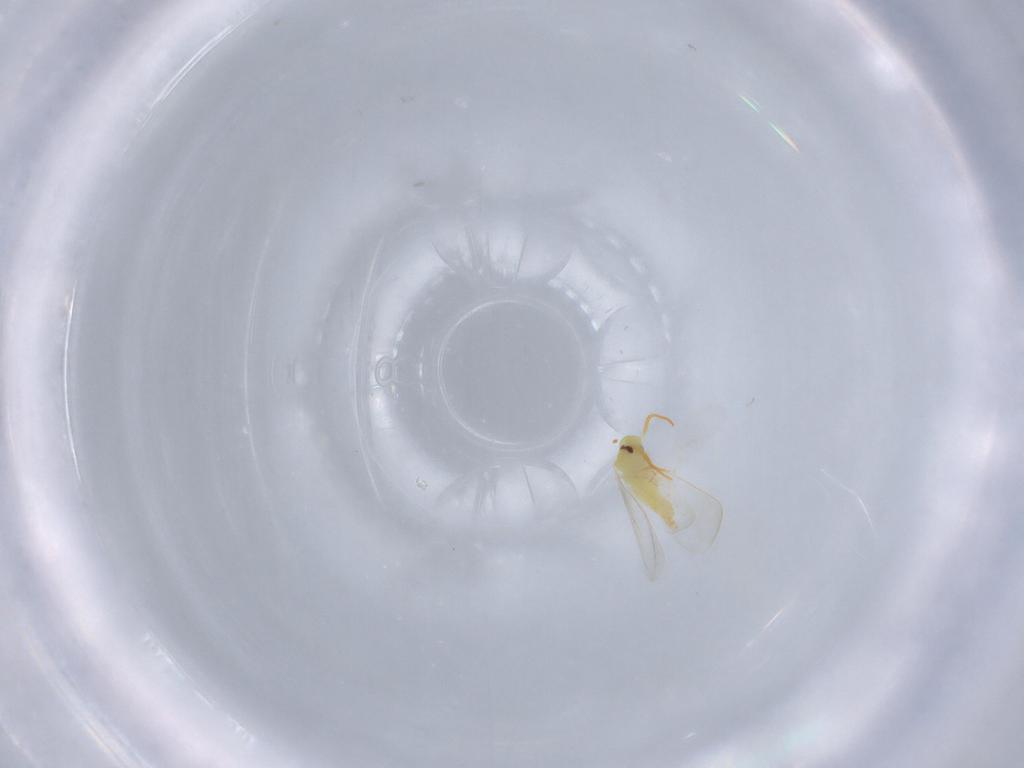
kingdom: Animalia
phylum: Arthropoda
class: Insecta
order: Hemiptera
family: Aleyrodidae
